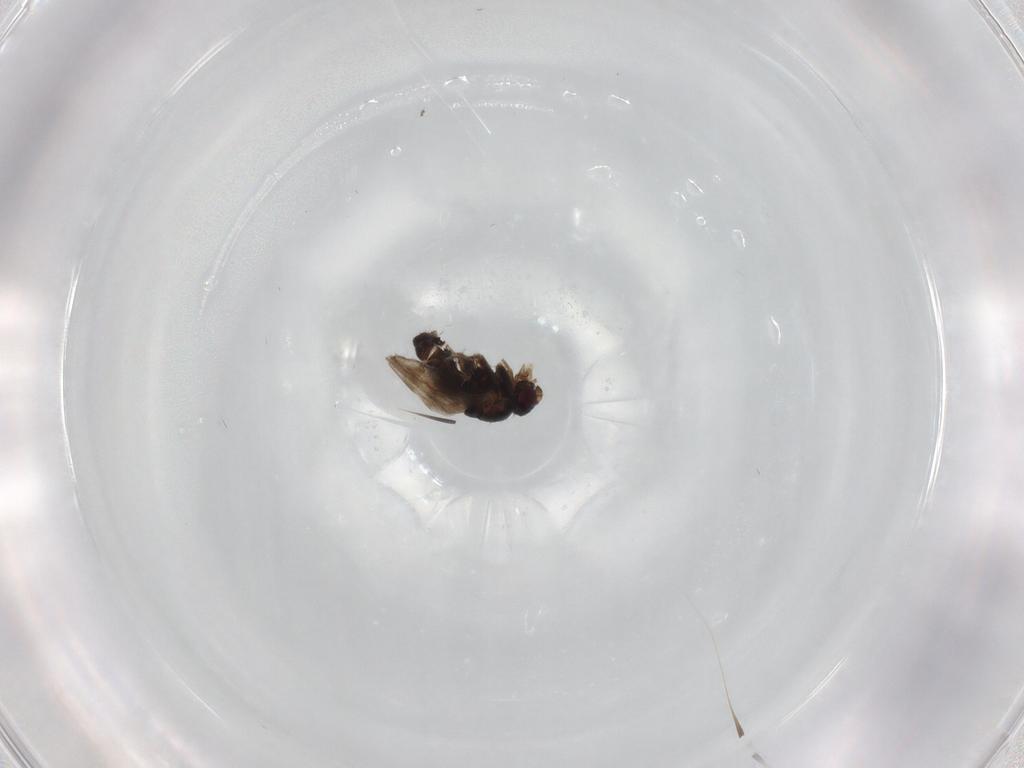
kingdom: Animalia
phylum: Arthropoda
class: Insecta
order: Diptera
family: Sphaeroceridae
